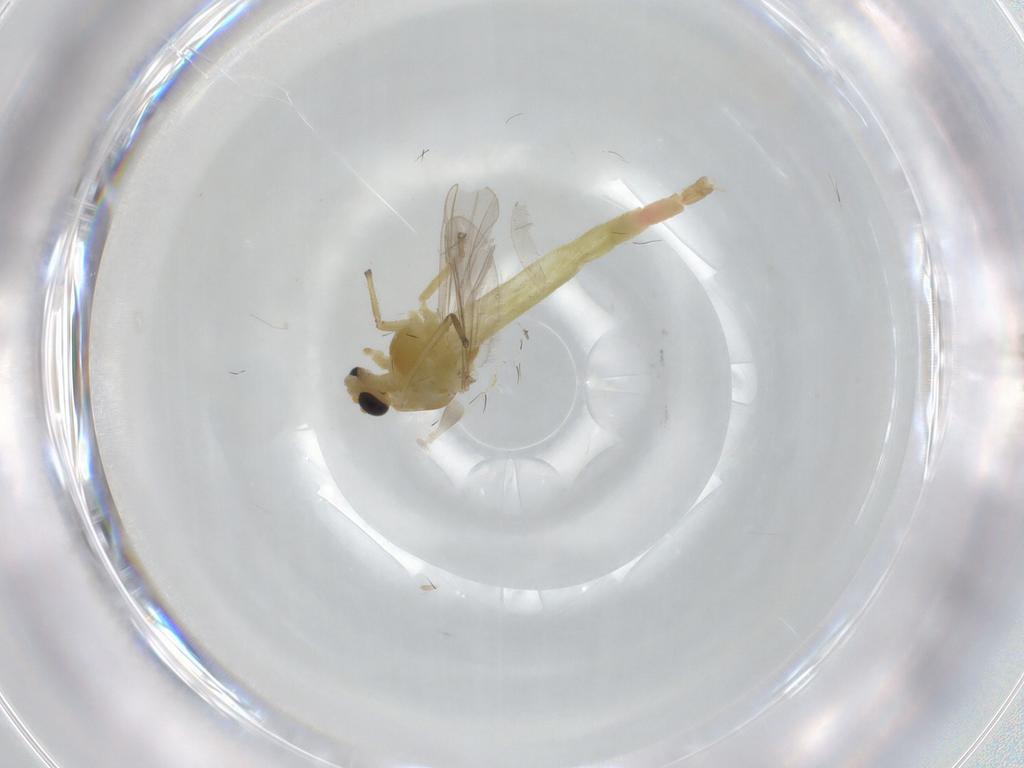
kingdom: Animalia
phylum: Arthropoda
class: Insecta
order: Diptera
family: Chironomidae
